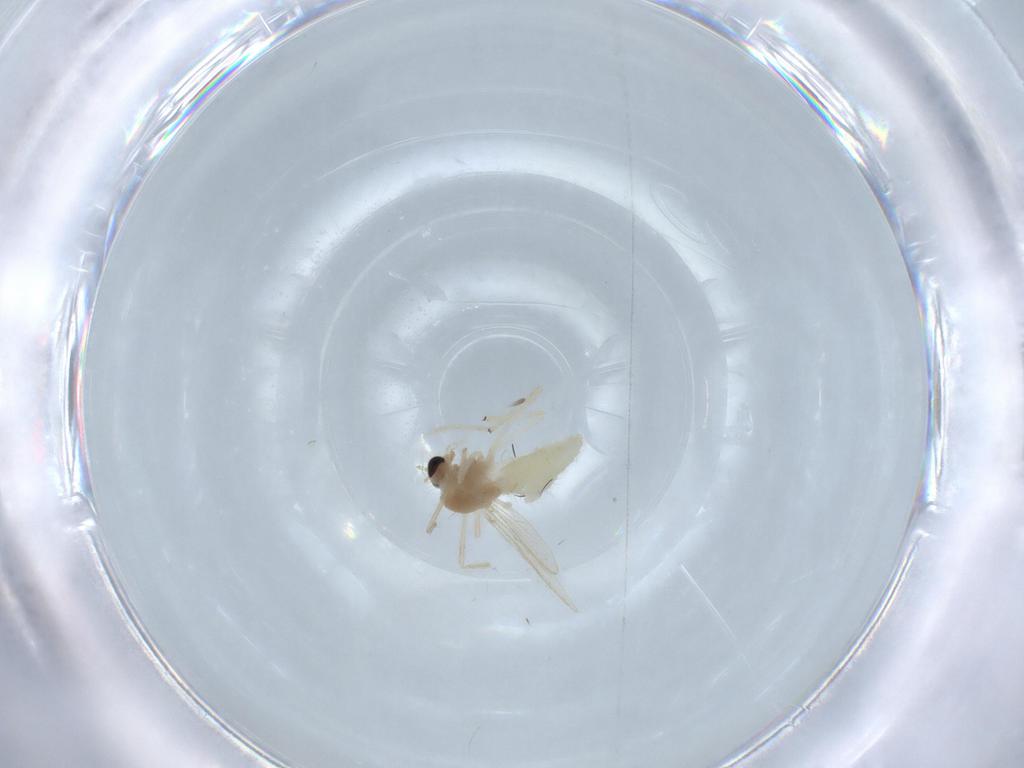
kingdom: Animalia
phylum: Arthropoda
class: Insecta
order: Diptera
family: Chironomidae
